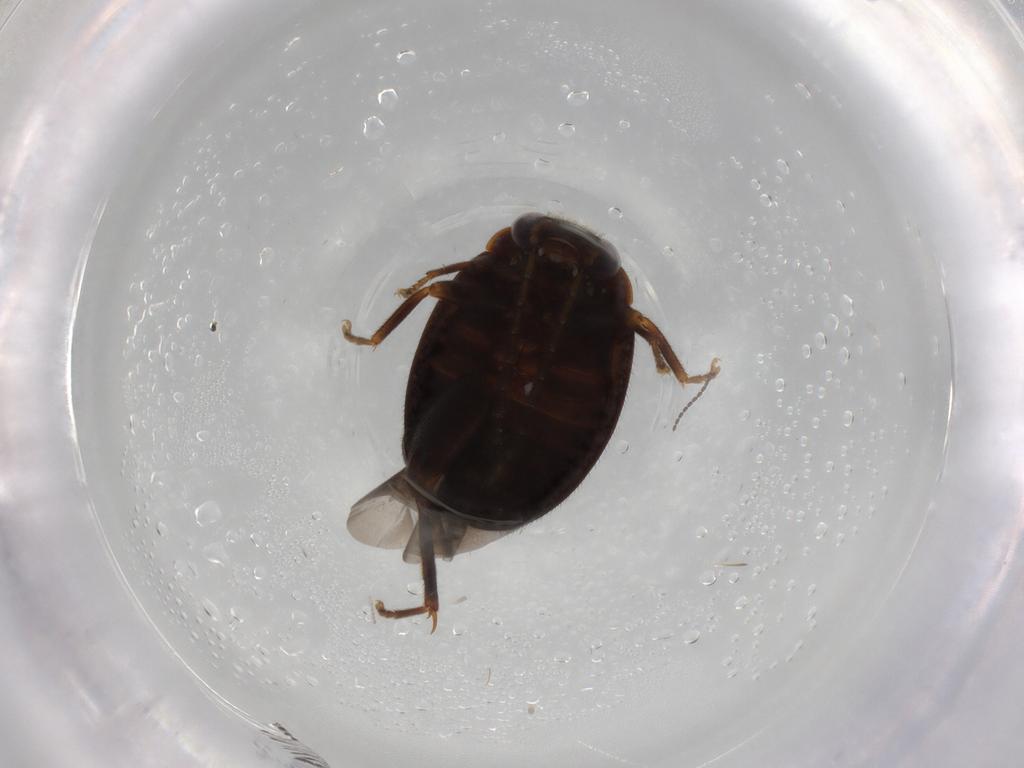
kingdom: Animalia
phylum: Arthropoda
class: Insecta
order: Coleoptera
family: Scirtidae
